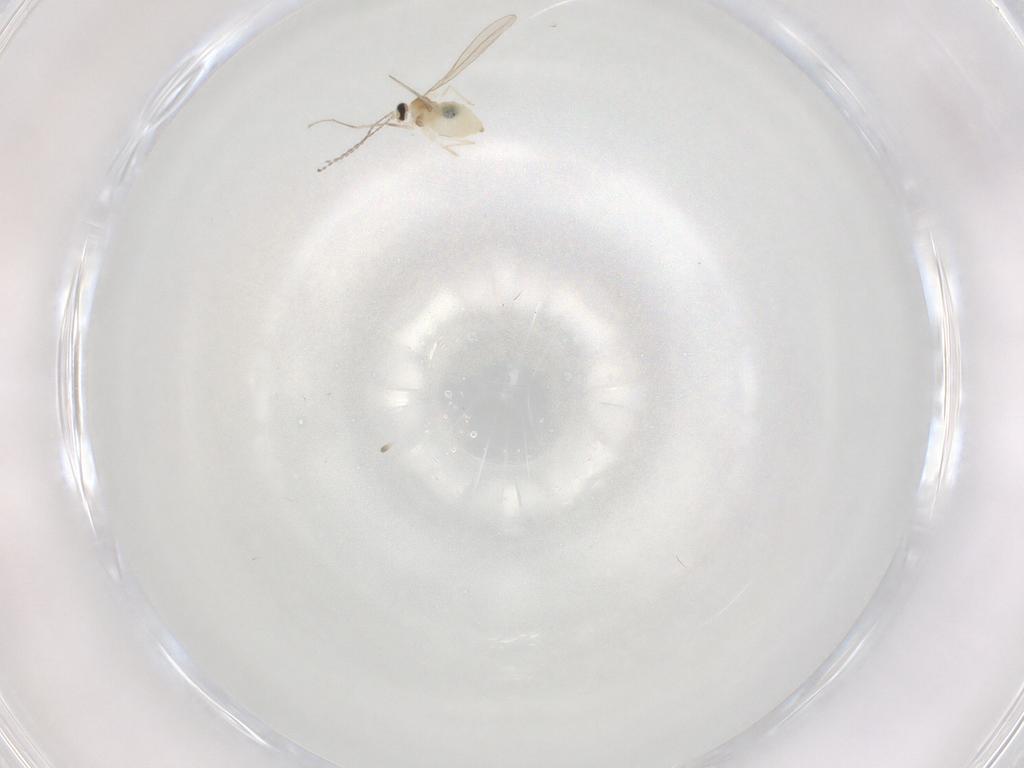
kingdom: Animalia
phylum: Arthropoda
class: Insecta
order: Diptera
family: Cecidomyiidae
